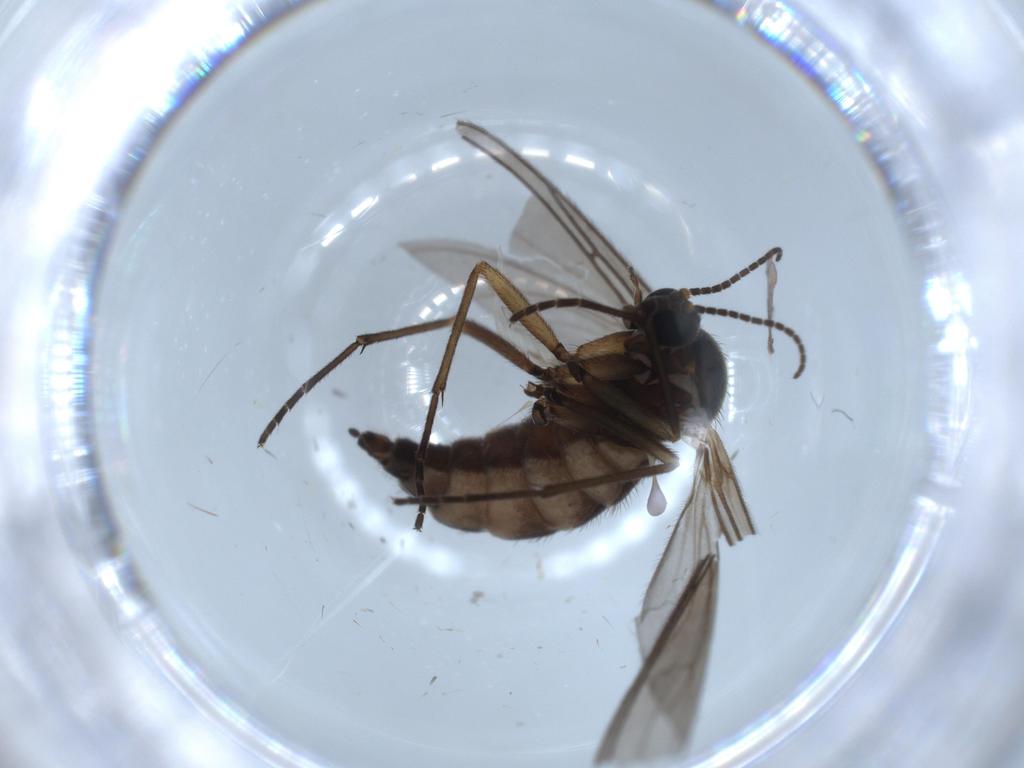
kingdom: Animalia
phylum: Arthropoda
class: Insecta
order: Diptera
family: Cecidomyiidae
